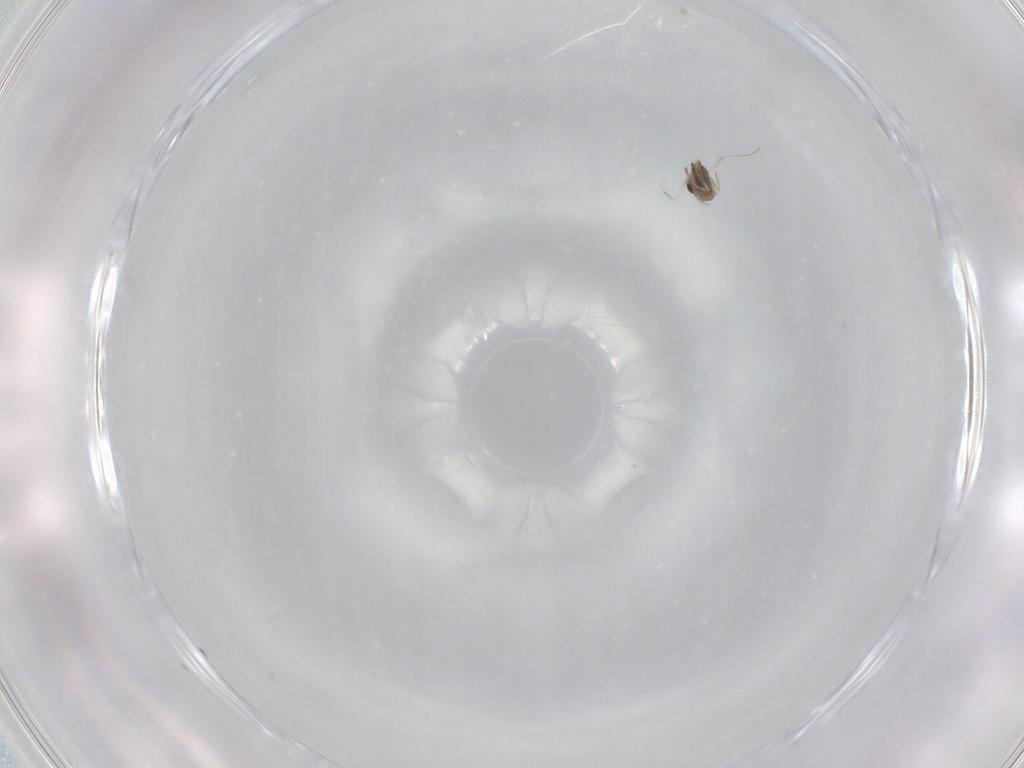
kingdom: Animalia
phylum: Arthropoda
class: Insecta
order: Diptera
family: Cecidomyiidae
